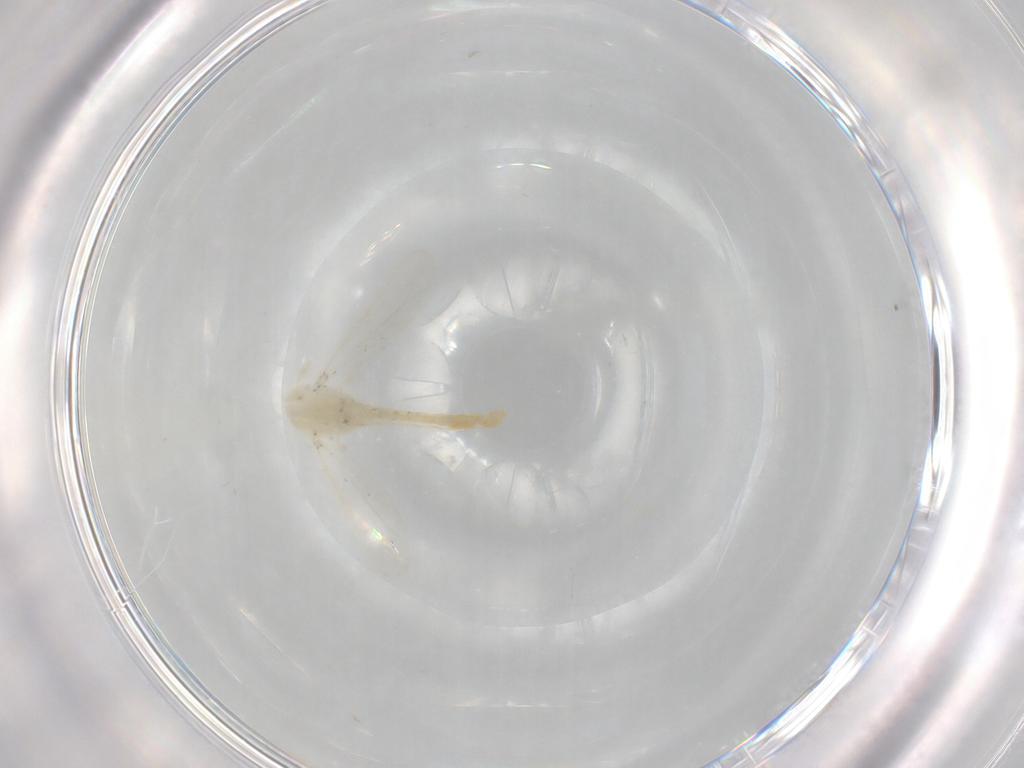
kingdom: Animalia
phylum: Arthropoda
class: Insecta
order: Diptera
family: Chironomidae
